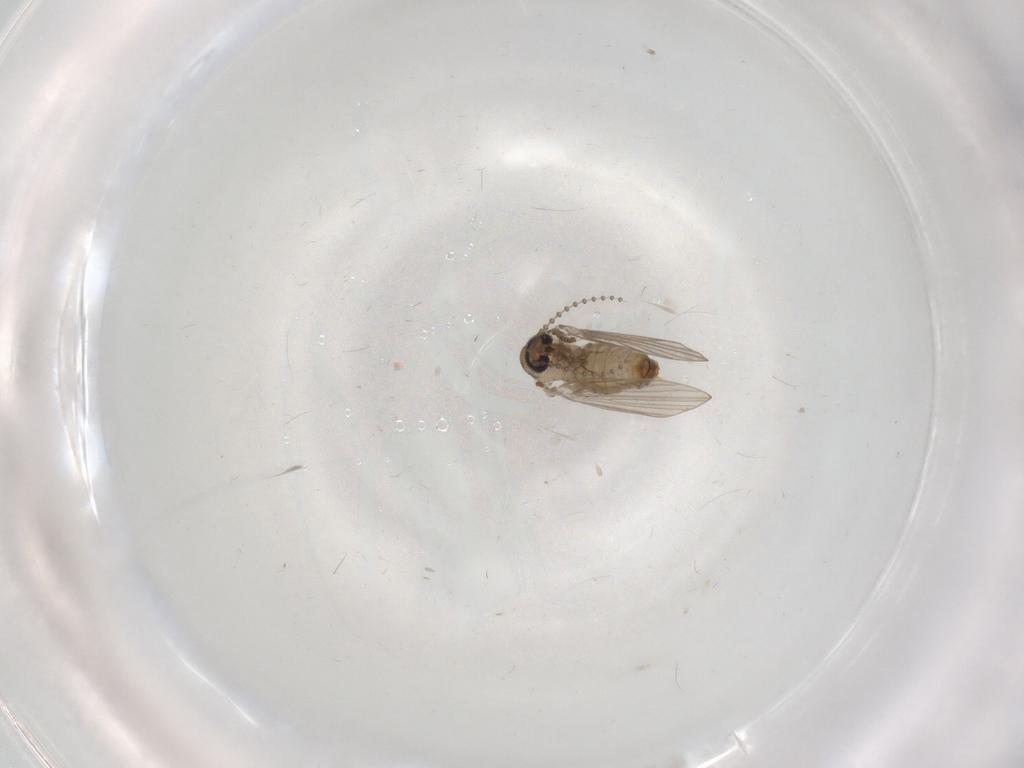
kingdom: Animalia
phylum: Arthropoda
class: Insecta
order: Diptera
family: Psychodidae
